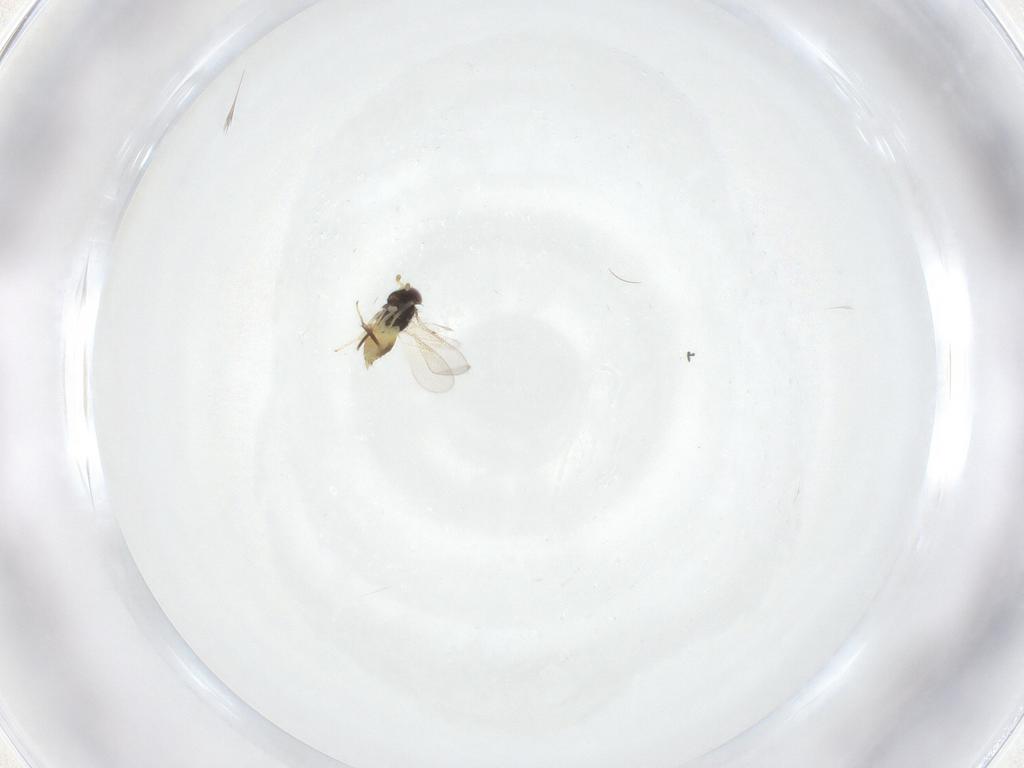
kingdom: Animalia
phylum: Arthropoda
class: Insecta
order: Hymenoptera
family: Aphelinidae
